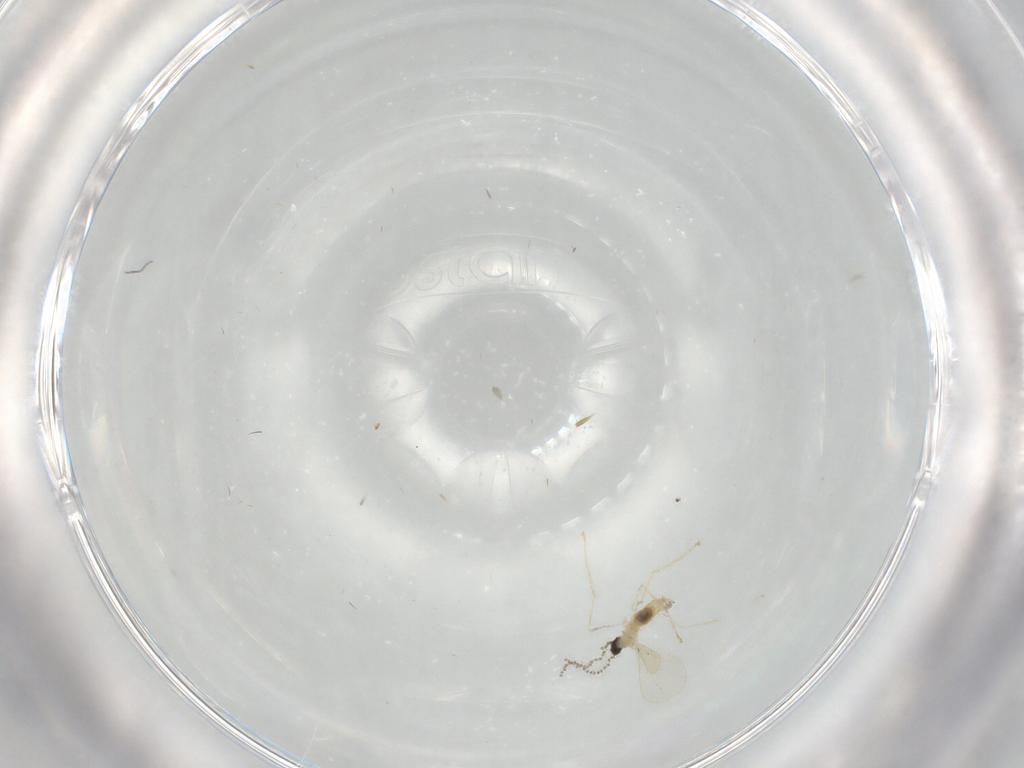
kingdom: Animalia
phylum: Arthropoda
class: Insecta
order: Diptera
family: Cecidomyiidae
